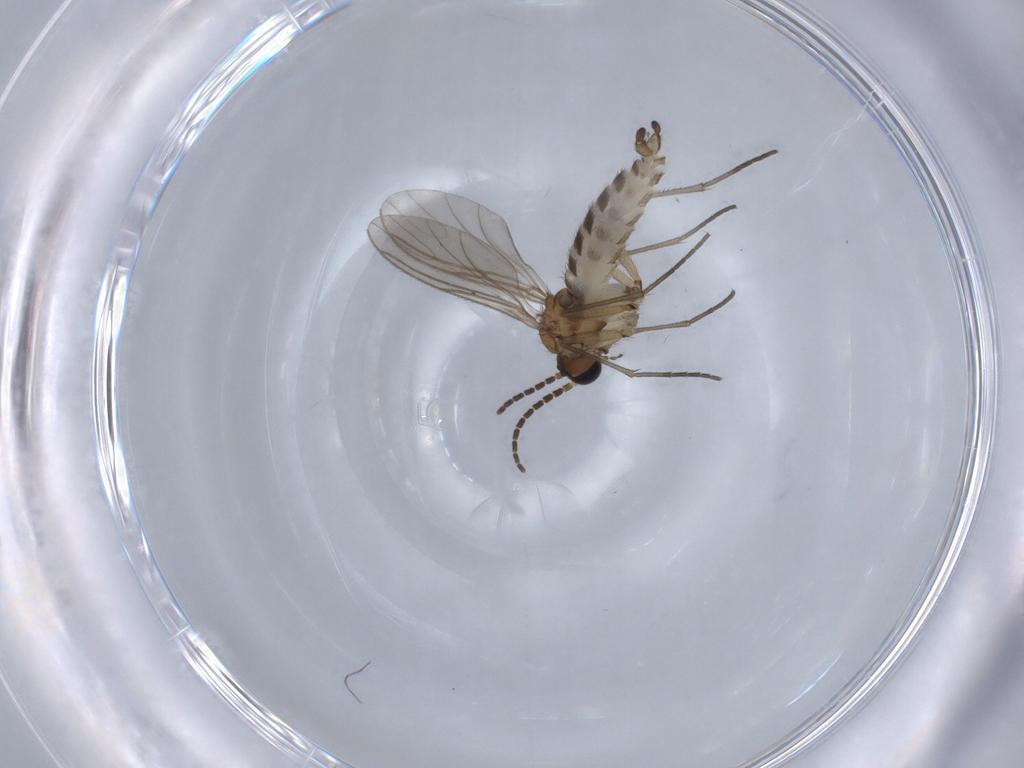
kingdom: Animalia
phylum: Arthropoda
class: Insecta
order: Diptera
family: Sciaridae
